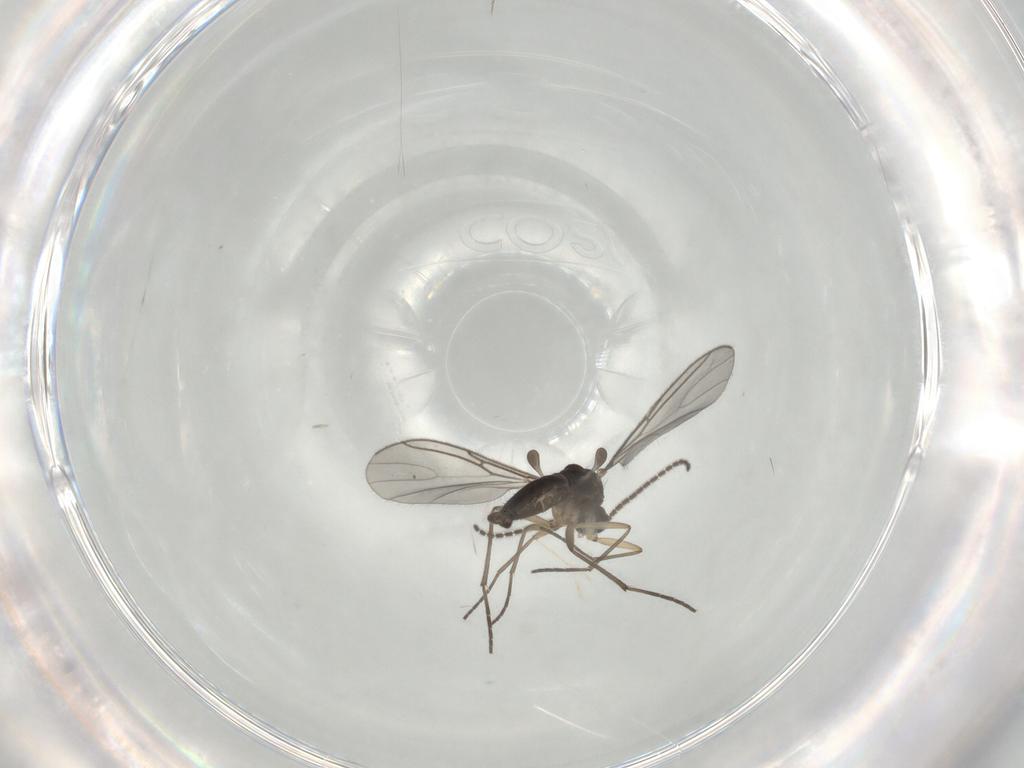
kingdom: Animalia
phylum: Arthropoda
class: Insecta
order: Diptera
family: Sciaridae
